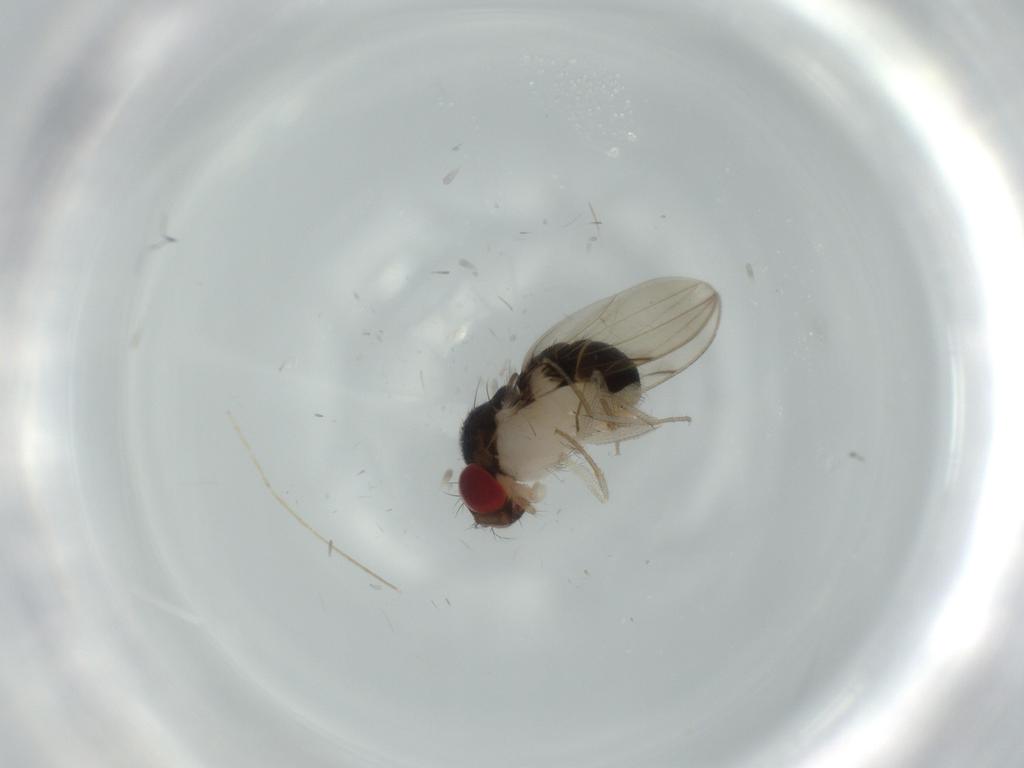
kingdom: Animalia
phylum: Arthropoda
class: Insecta
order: Diptera
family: Drosophilidae
